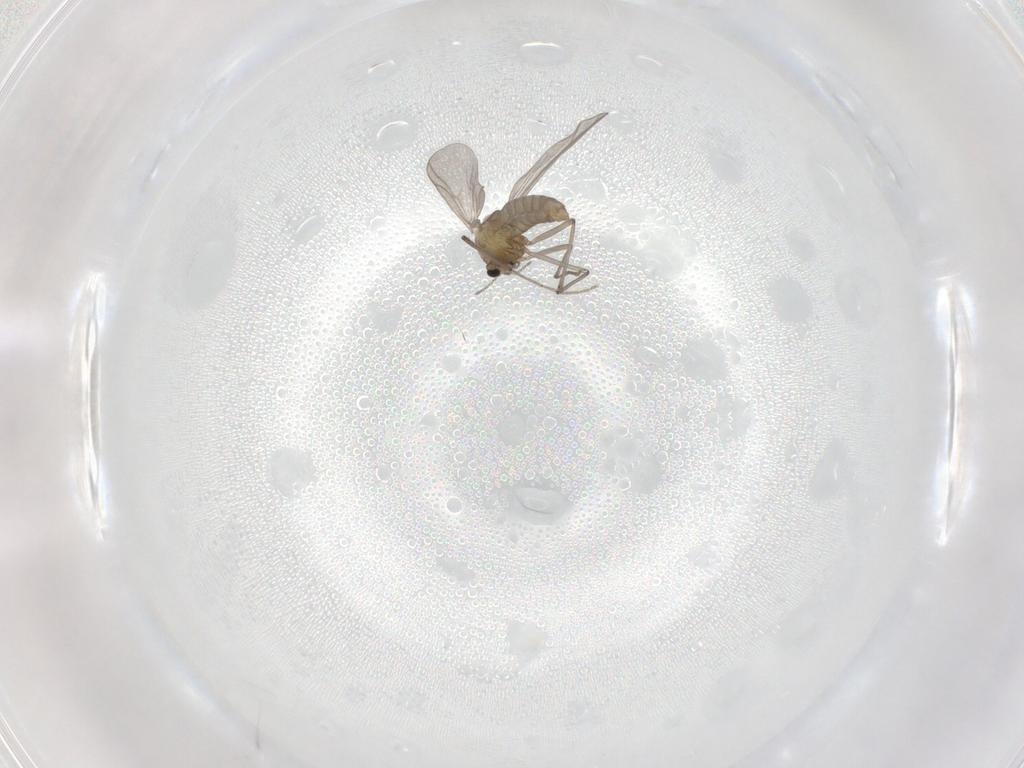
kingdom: Animalia
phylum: Arthropoda
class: Insecta
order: Diptera
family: Chironomidae
